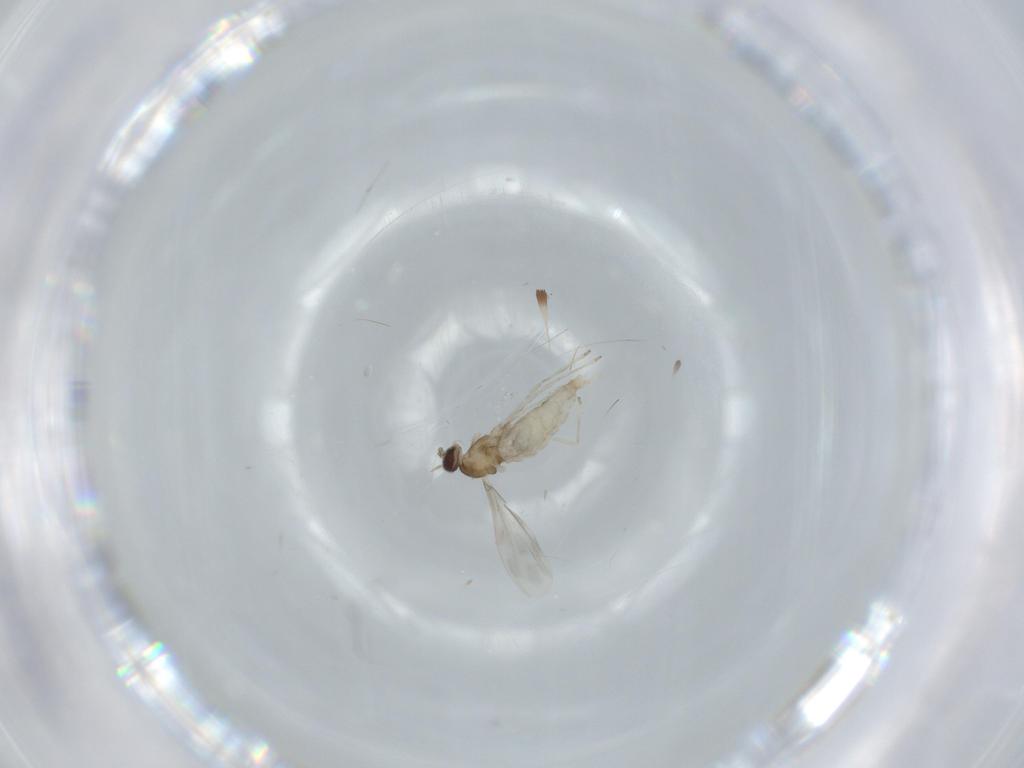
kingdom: Animalia
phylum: Arthropoda
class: Insecta
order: Diptera
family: Cecidomyiidae
